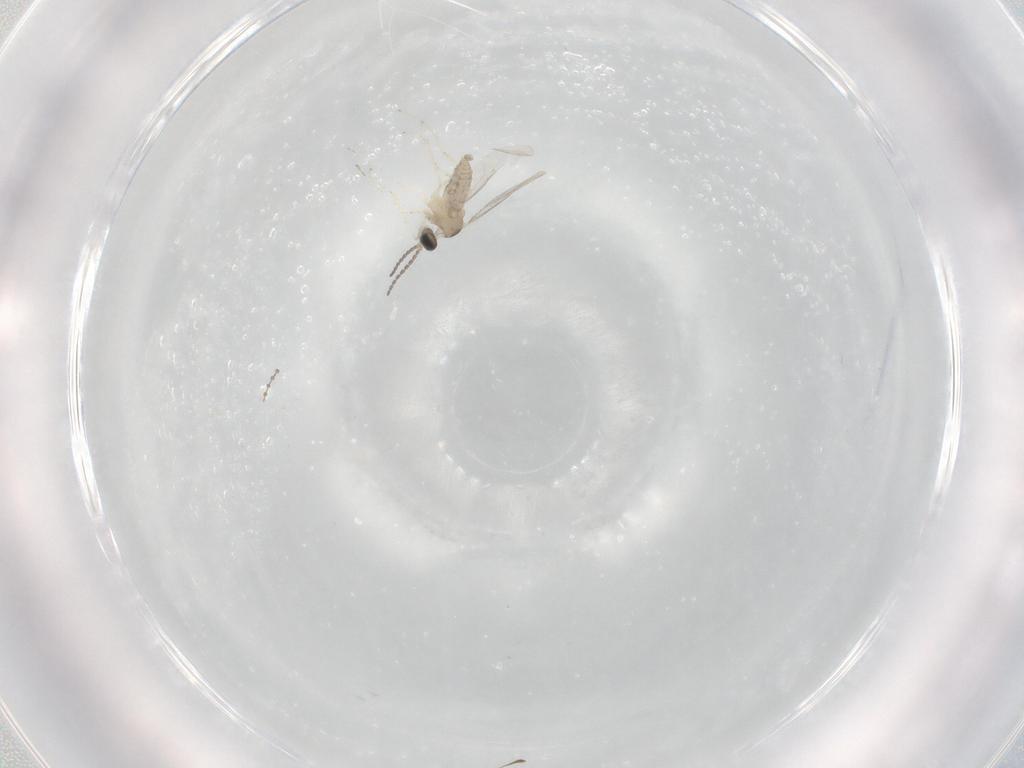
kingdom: Animalia
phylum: Arthropoda
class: Insecta
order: Diptera
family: Cecidomyiidae
